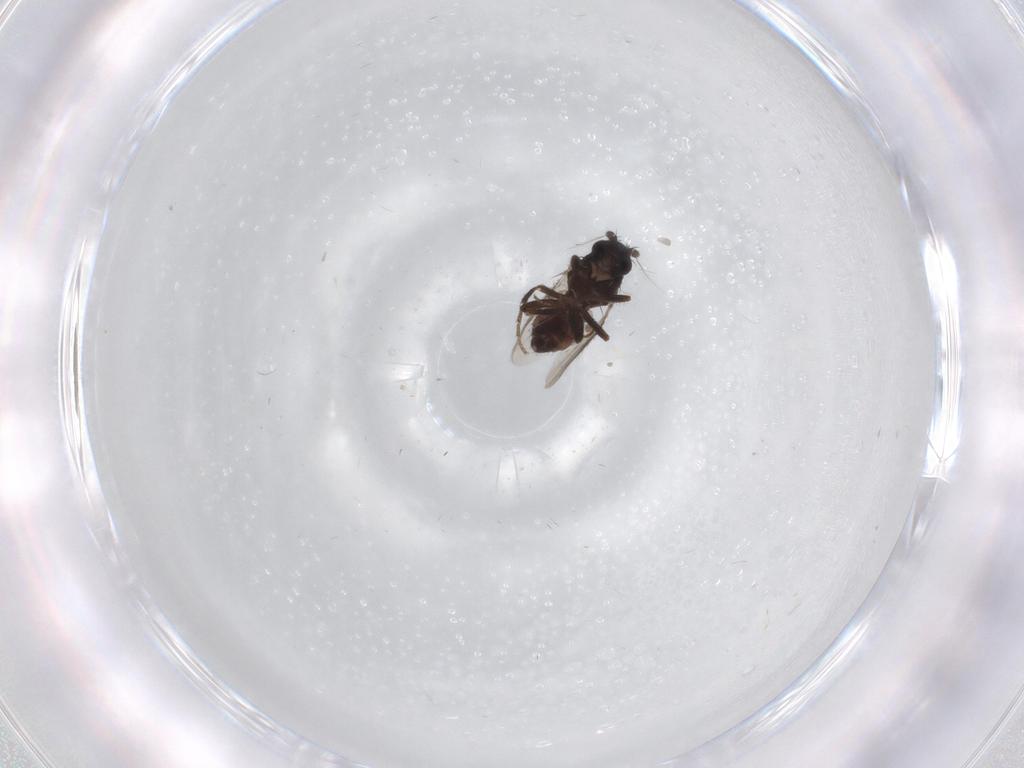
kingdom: Animalia
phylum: Arthropoda
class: Insecta
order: Diptera
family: Sphaeroceridae
